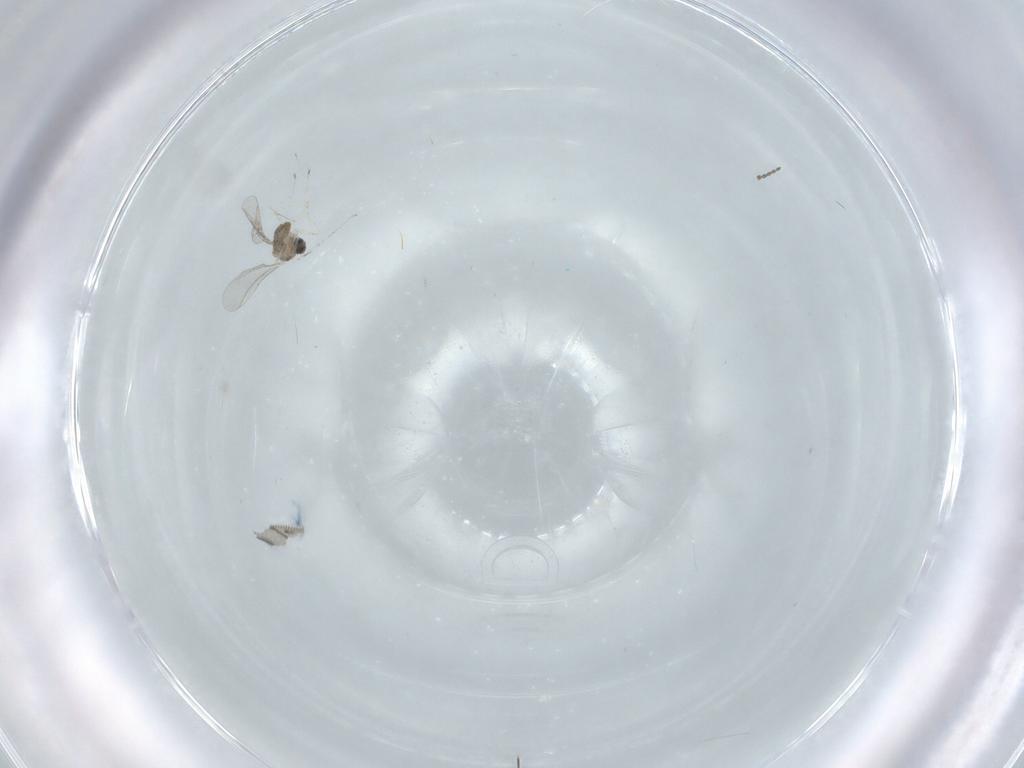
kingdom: Animalia
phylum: Arthropoda
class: Insecta
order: Diptera
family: Cecidomyiidae
